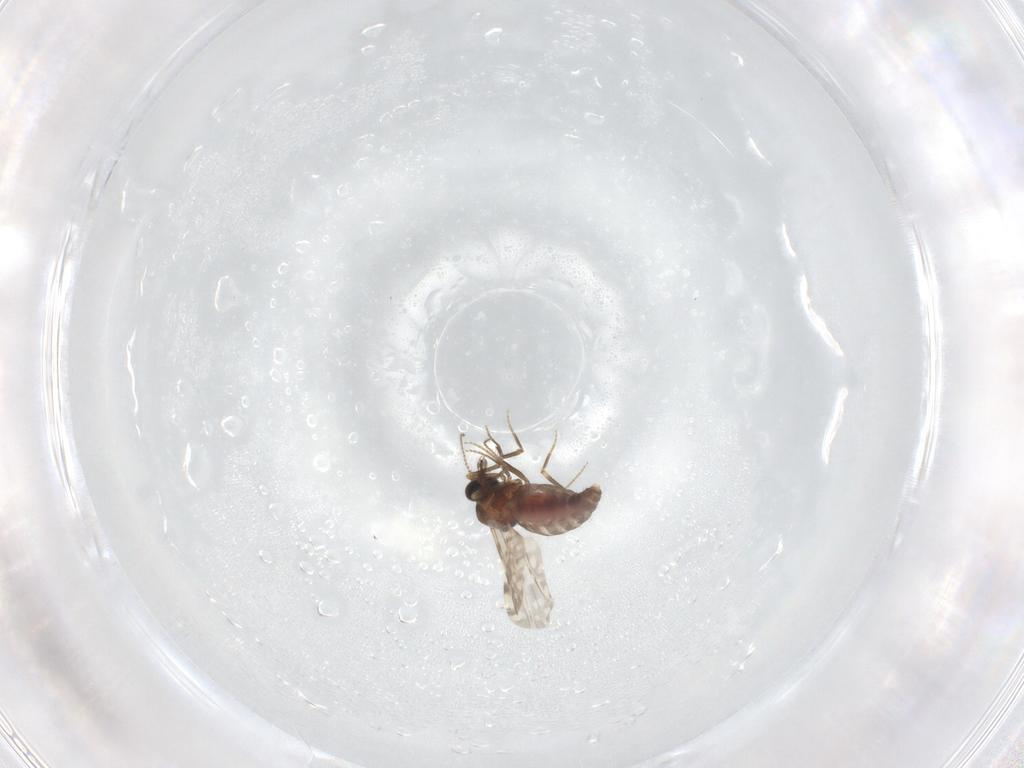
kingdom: Animalia
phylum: Arthropoda
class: Insecta
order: Diptera
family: Ceratopogonidae
